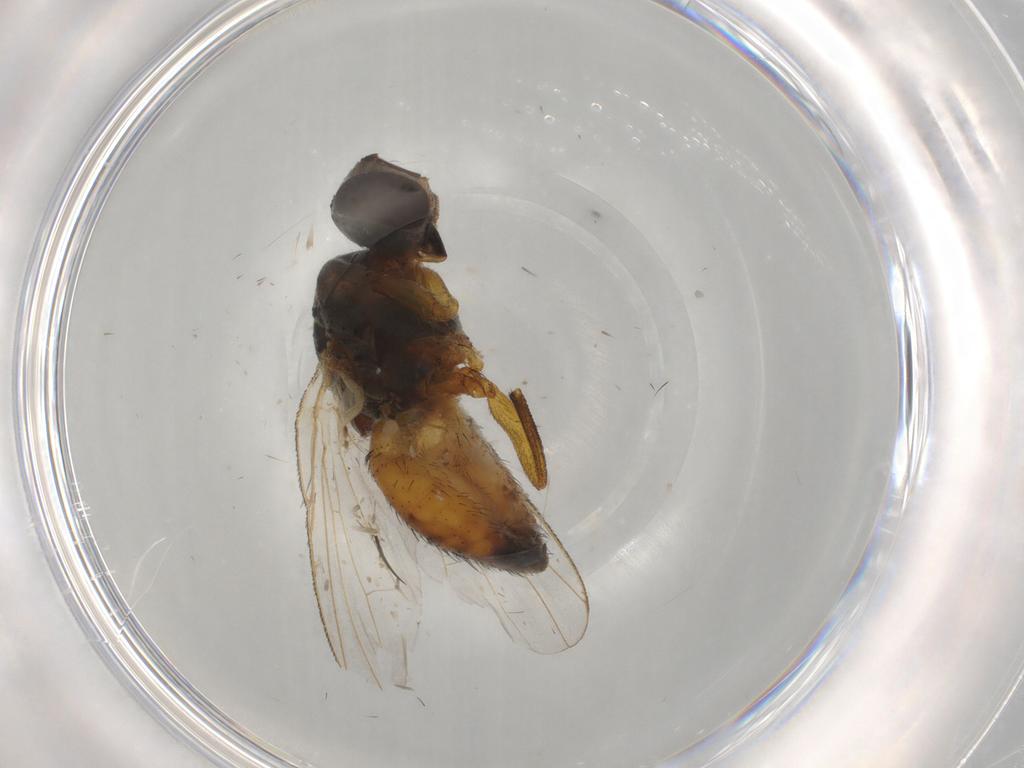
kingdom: Animalia
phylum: Arthropoda
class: Insecta
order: Diptera
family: Muscidae
